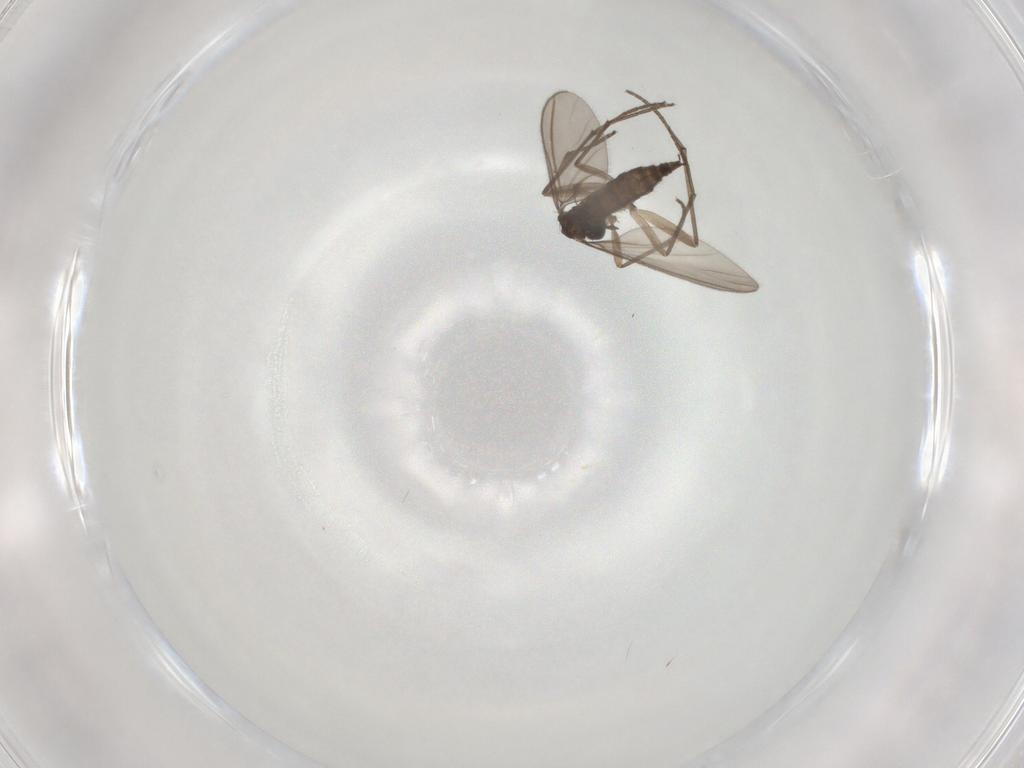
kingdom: Animalia
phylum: Arthropoda
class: Insecta
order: Diptera
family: Sciaridae
